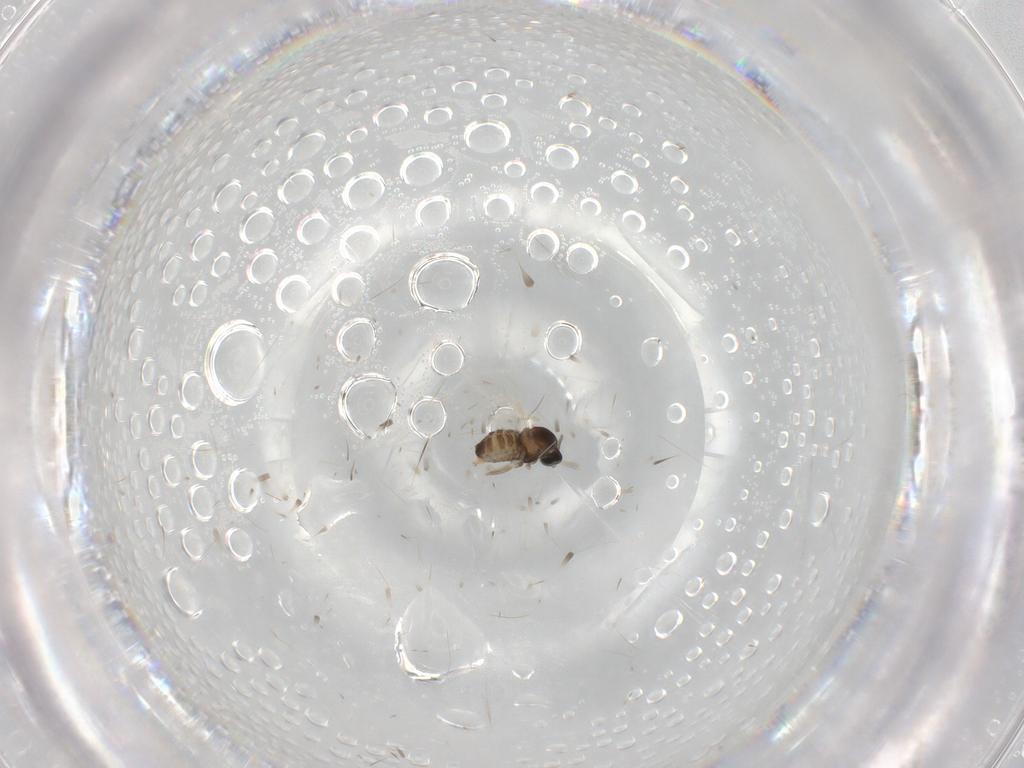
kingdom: Animalia
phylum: Arthropoda
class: Insecta
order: Diptera
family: Cecidomyiidae
